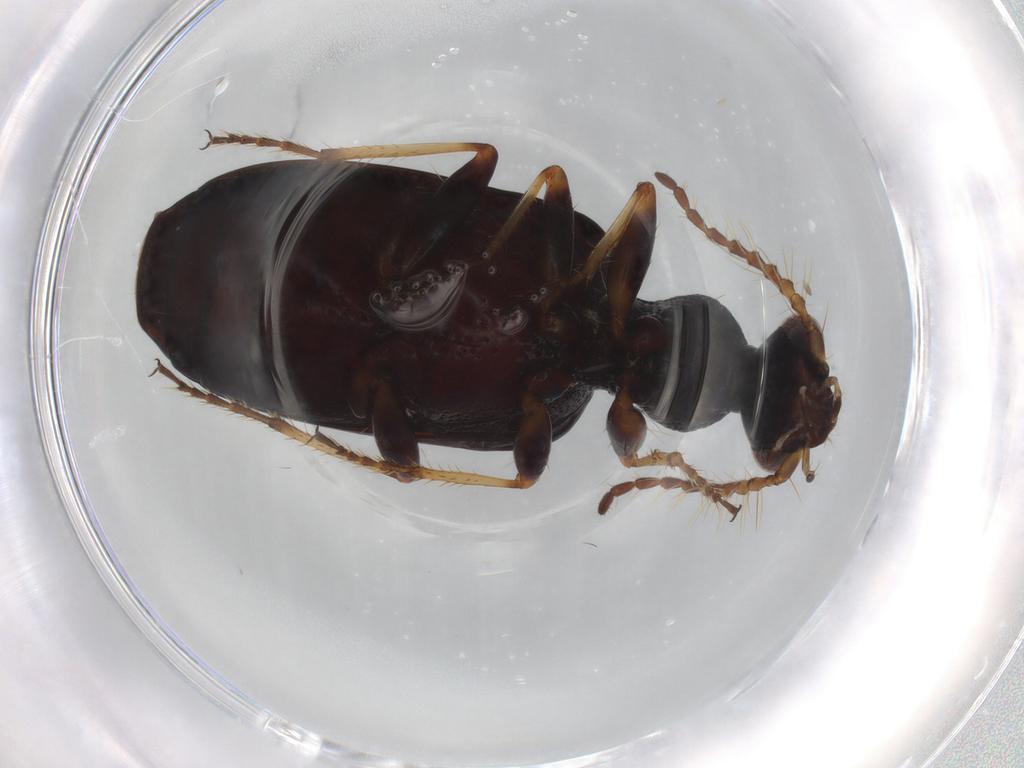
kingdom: Animalia
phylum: Arthropoda
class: Insecta
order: Coleoptera
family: Carabidae
